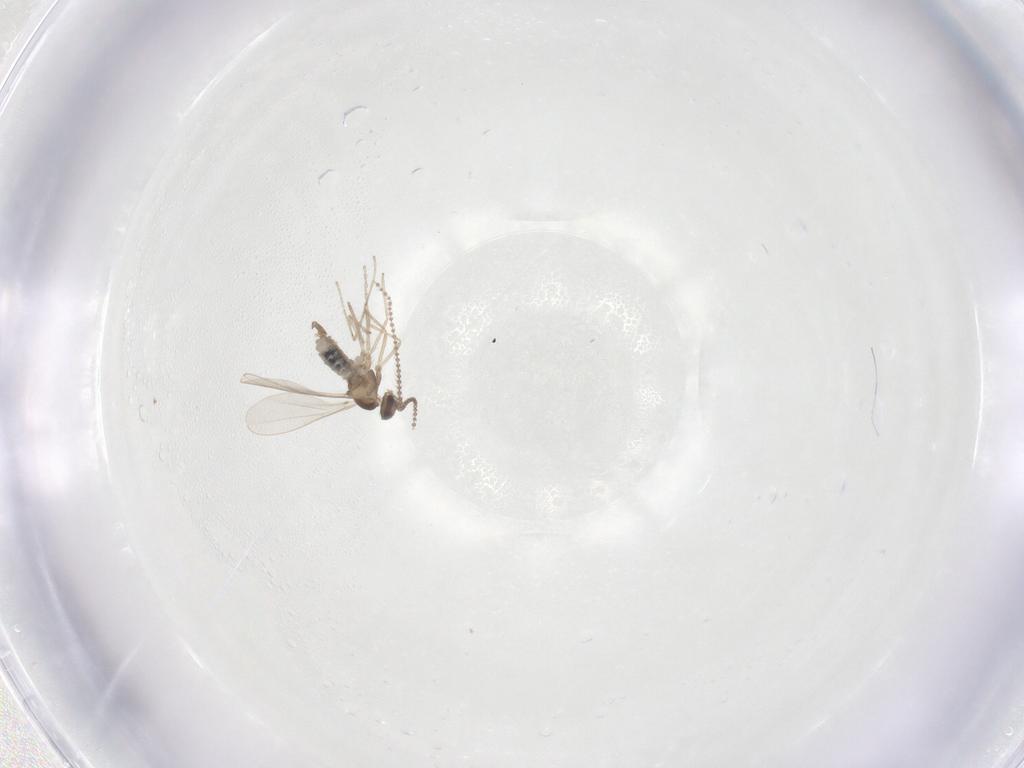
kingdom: Animalia
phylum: Arthropoda
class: Insecta
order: Diptera
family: Cecidomyiidae
